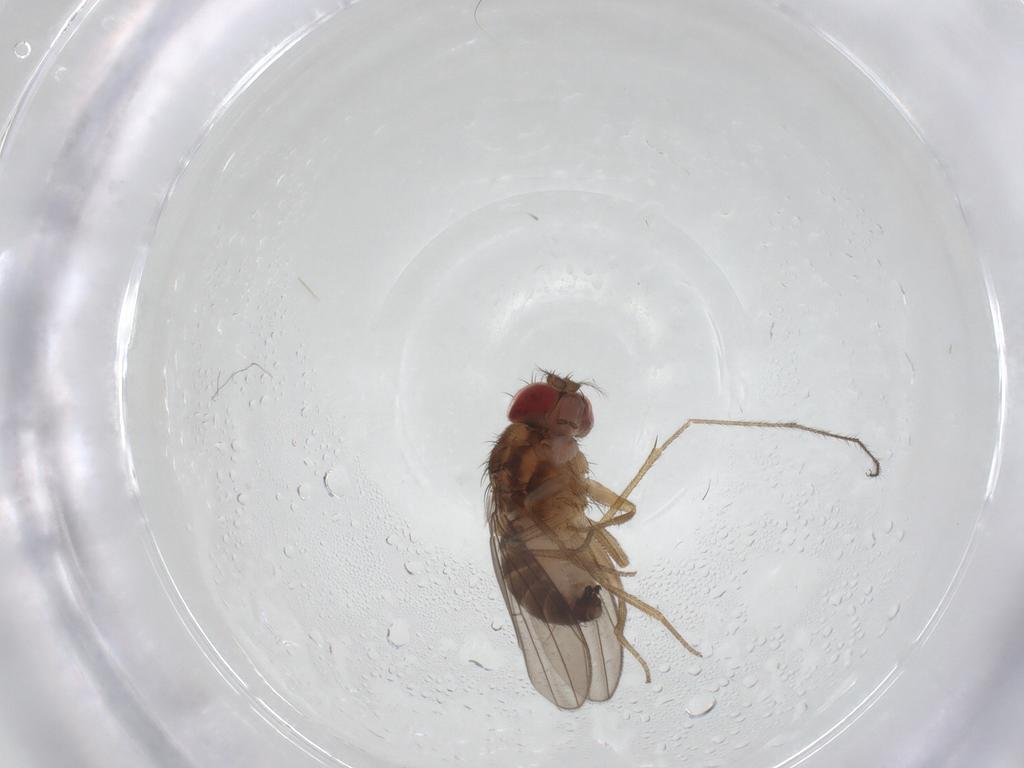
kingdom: Animalia
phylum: Arthropoda
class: Insecta
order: Diptera
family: Drosophilidae
